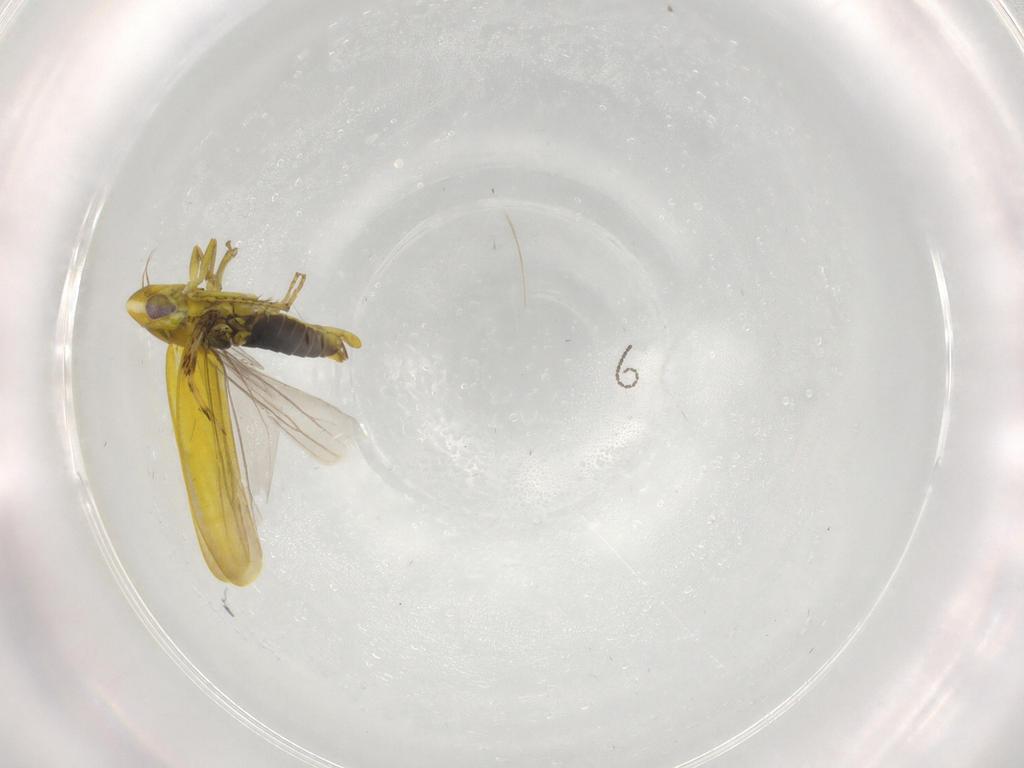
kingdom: Animalia
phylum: Arthropoda
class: Insecta
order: Hemiptera
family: Cicadellidae
